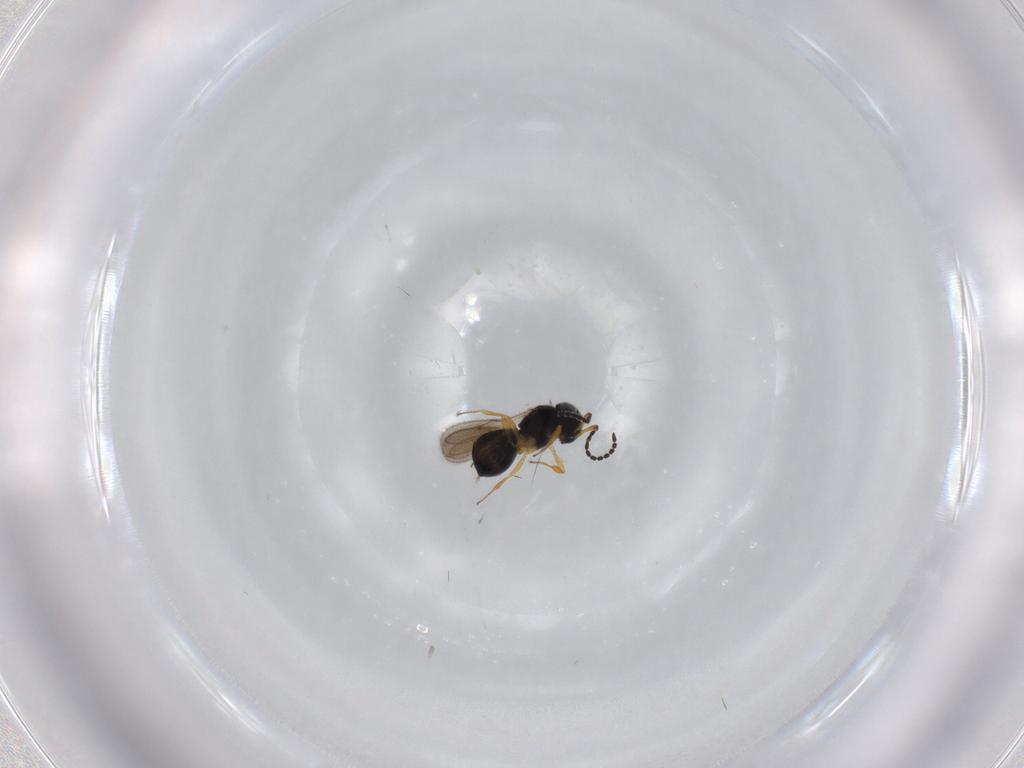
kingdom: Animalia
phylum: Arthropoda
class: Insecta
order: Hymenoptera
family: Scelionidae
